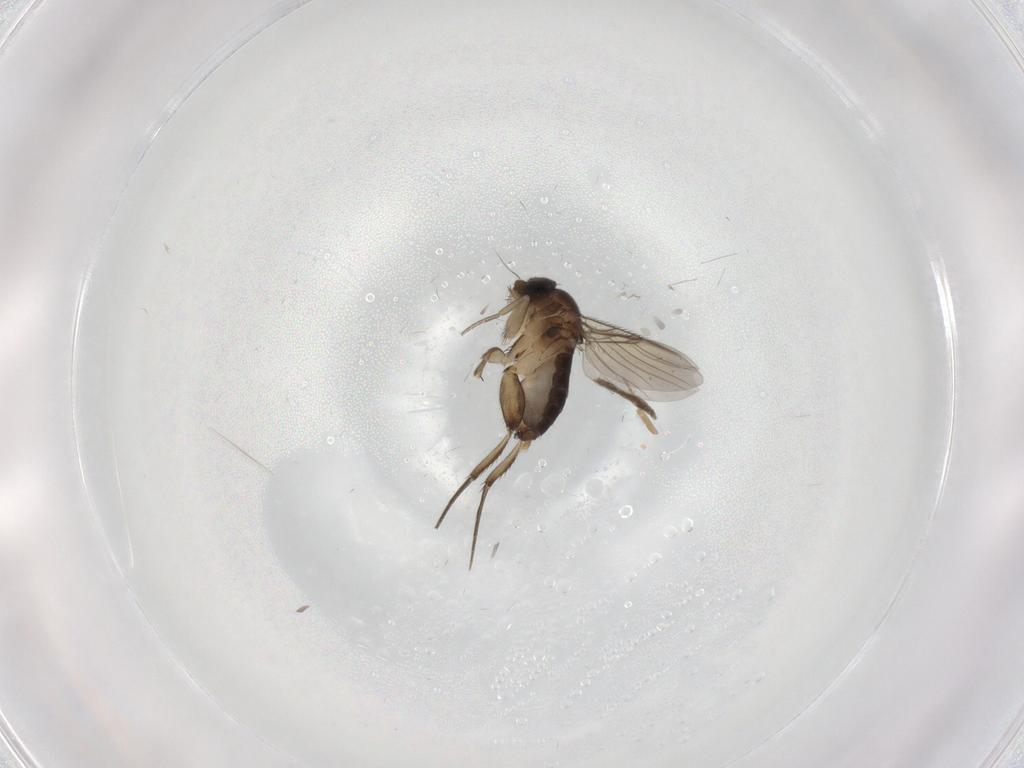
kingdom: Animalia
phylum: Arthropoda
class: Insecta
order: Diptera
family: Phoridae
